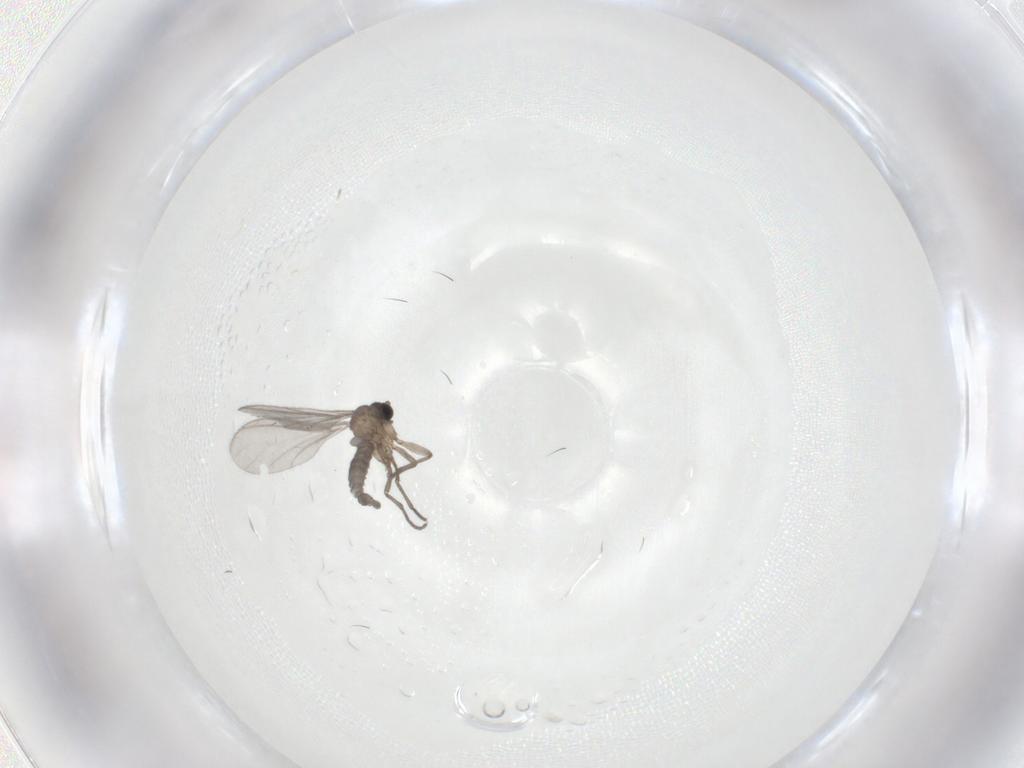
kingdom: Animalia
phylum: Arthropoda
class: Insecta
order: Diptera
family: Sciaridae
